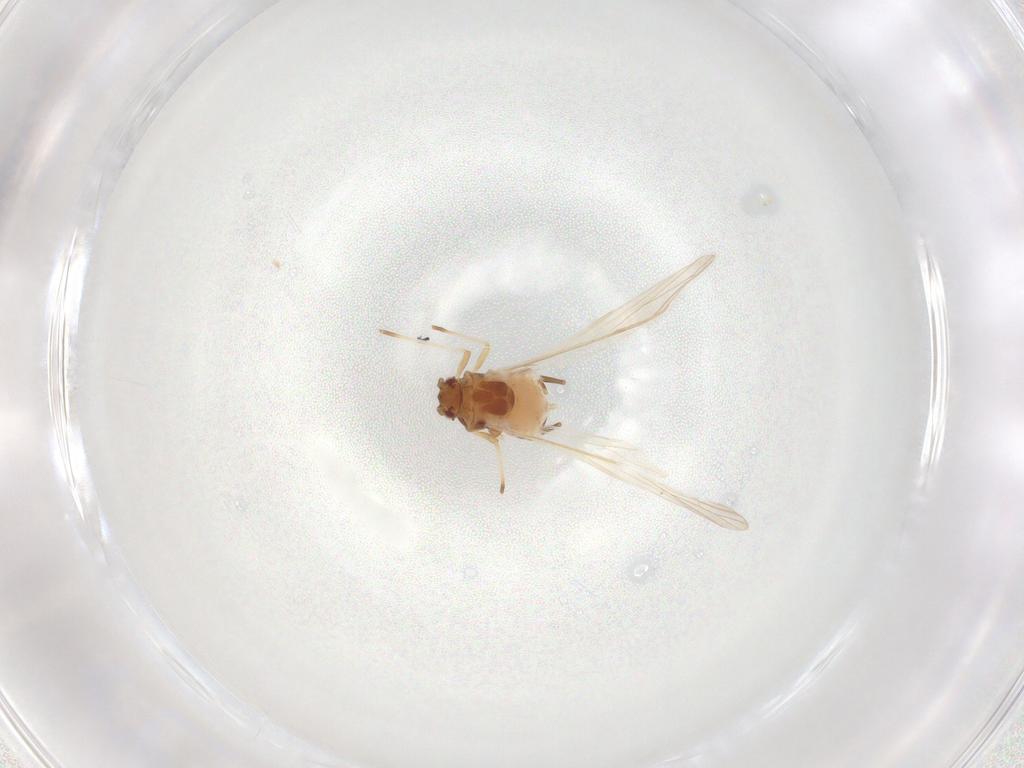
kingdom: Animalia
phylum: Arthropoda
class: Insecta
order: Hemiptera
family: Aphididae
